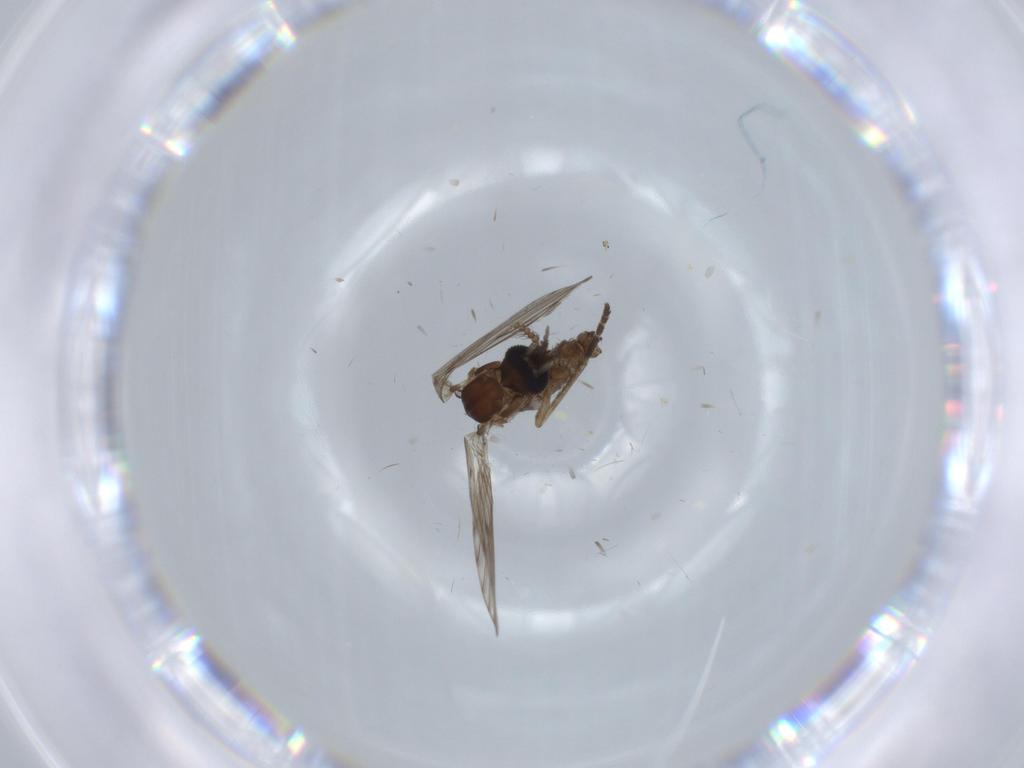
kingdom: Animalia
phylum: Arthropoda
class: Insecta
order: Diptera
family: Psychodidae
